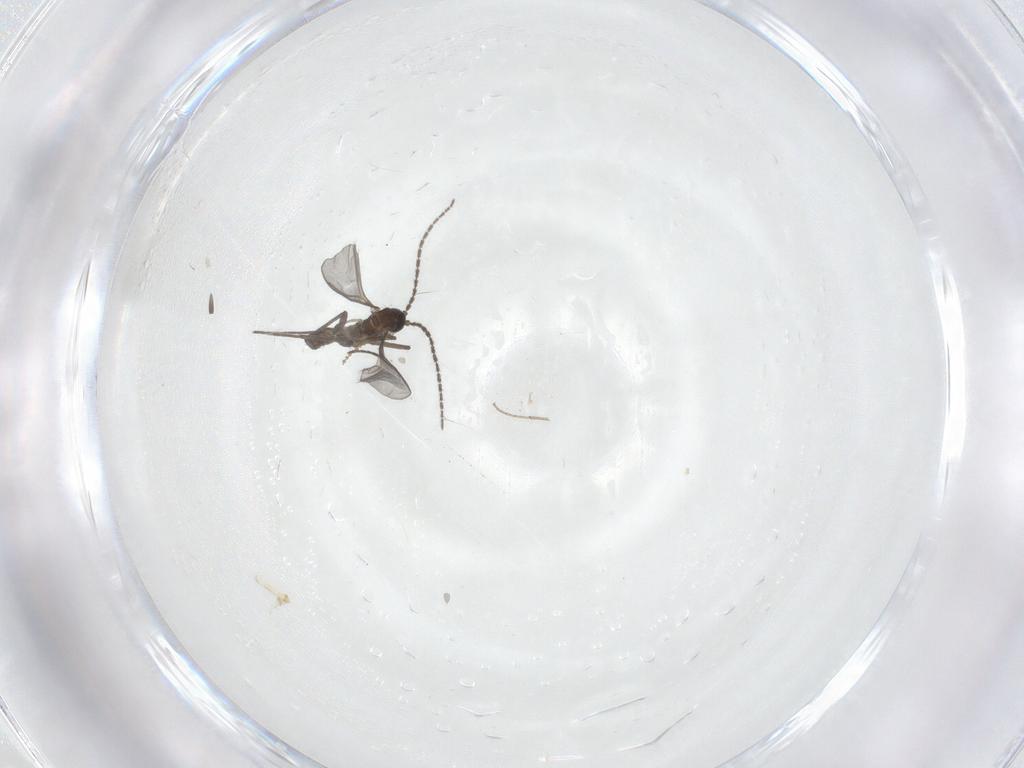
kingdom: Animalia
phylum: Arthropoda
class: Insecta
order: Diptera
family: Sciaridae
